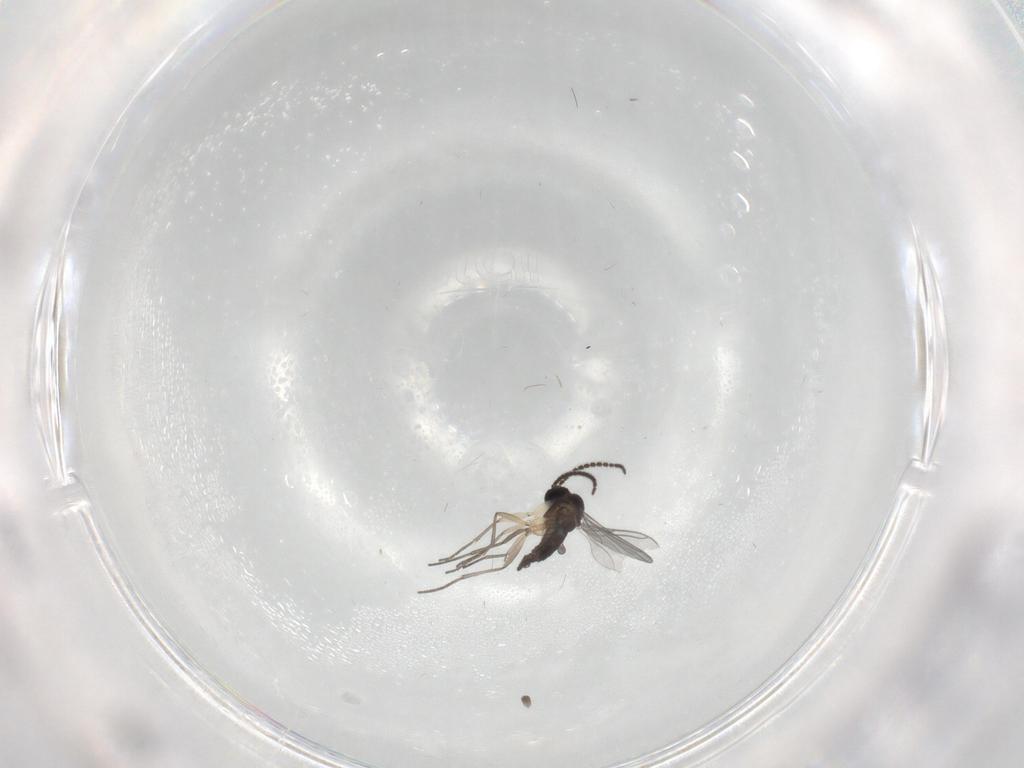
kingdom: Animalia
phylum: Arthropoda
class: Insecta
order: Diptera
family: Sciaridae
